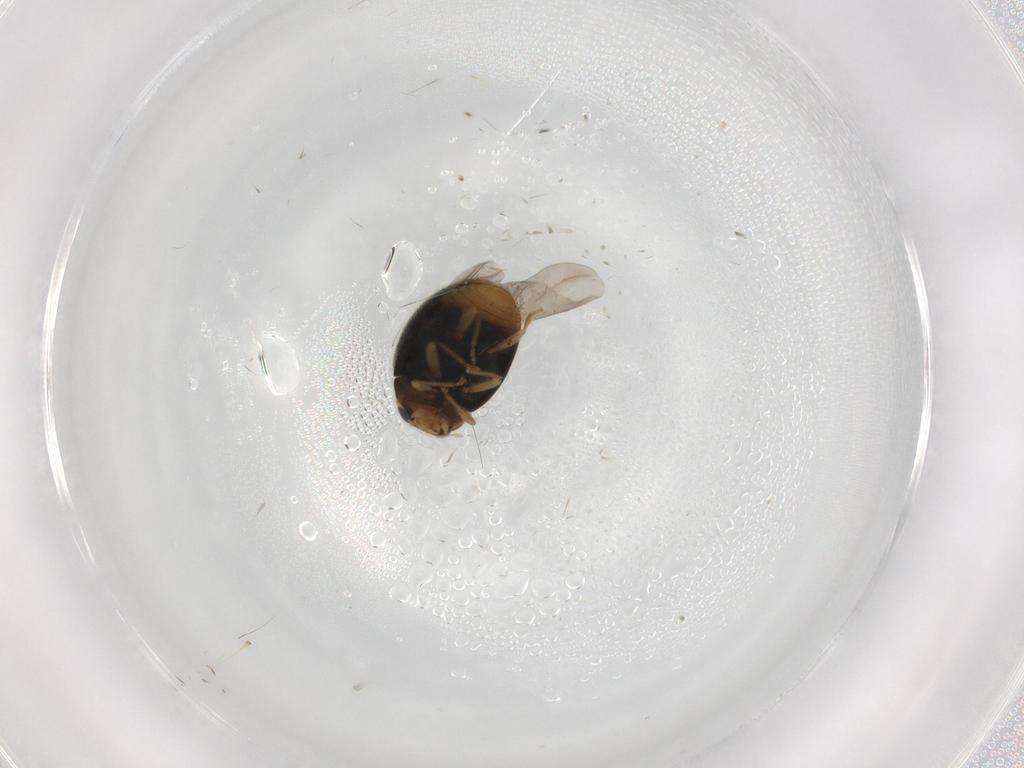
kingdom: Animalia
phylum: Arthropoda
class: Insecta
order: Coleoptera
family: Coccinellidae
